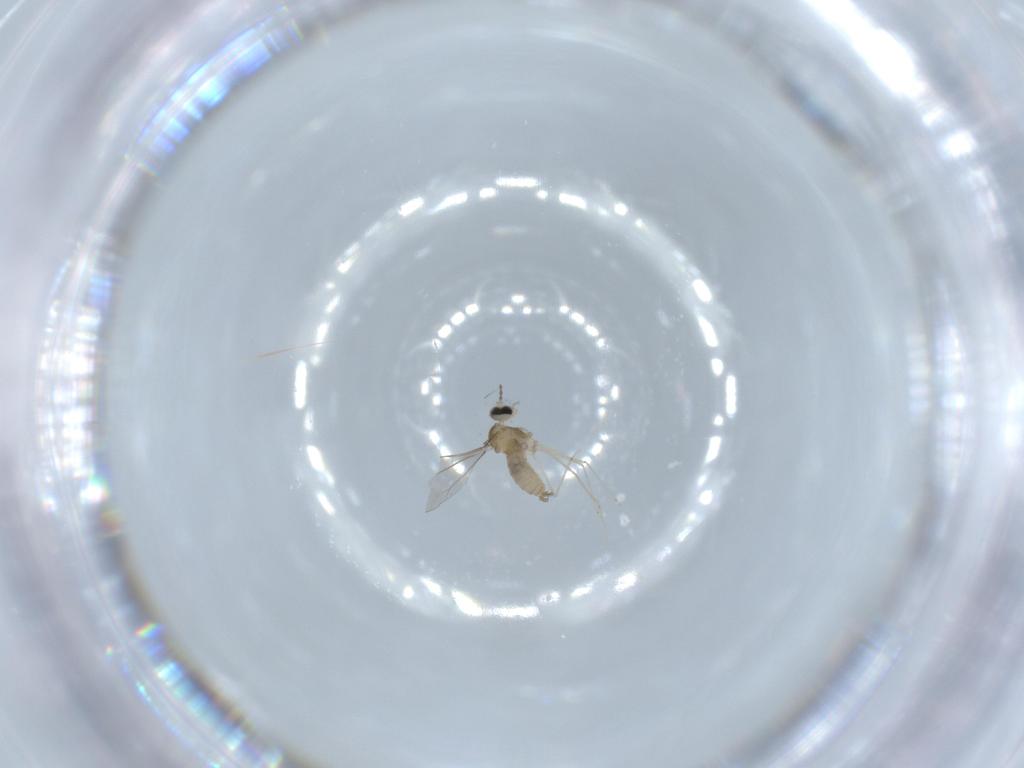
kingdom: Animalia
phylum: Arthropoda
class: Insecta
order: Diptera
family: Cecidomyiidae
